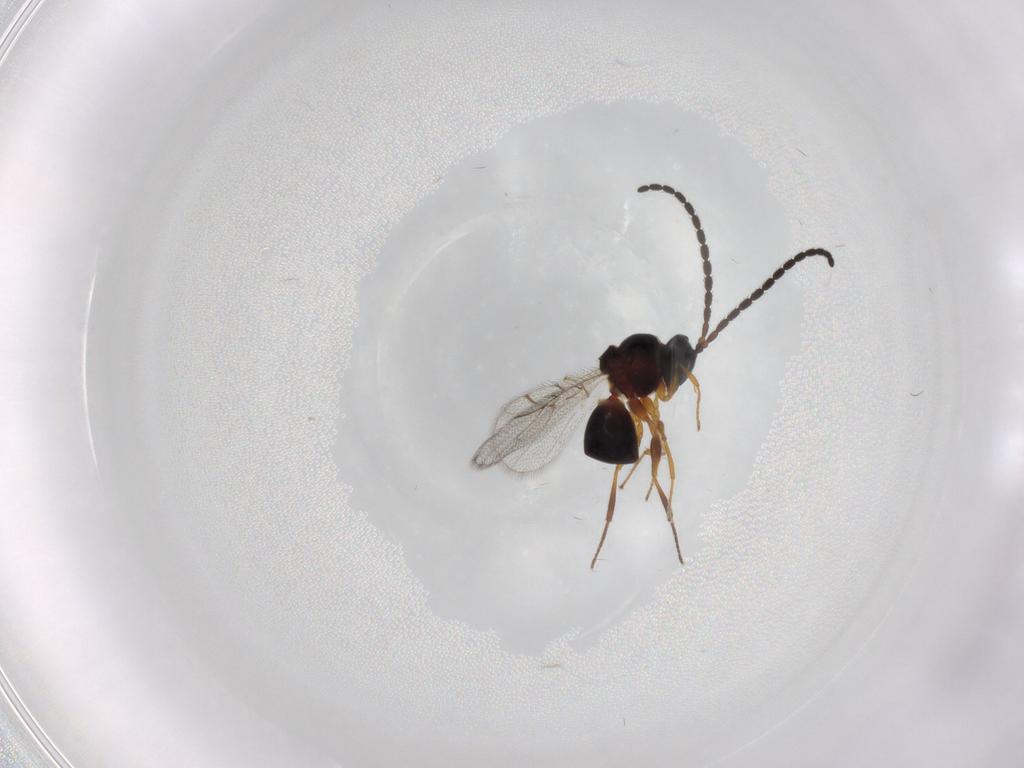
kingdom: Animalia
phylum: Arthropoda
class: Insecta
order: Hymenoptera
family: Figitidae
